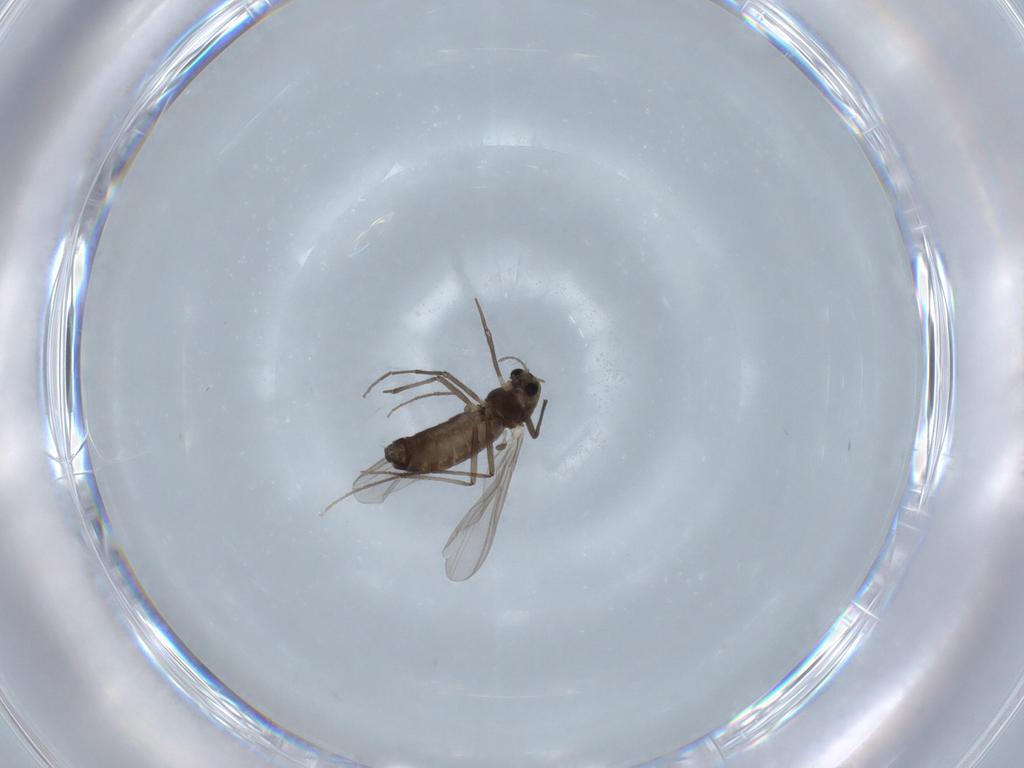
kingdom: Animalia
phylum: Arthropoda
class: Insecta
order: Diptera
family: Chironomidae
